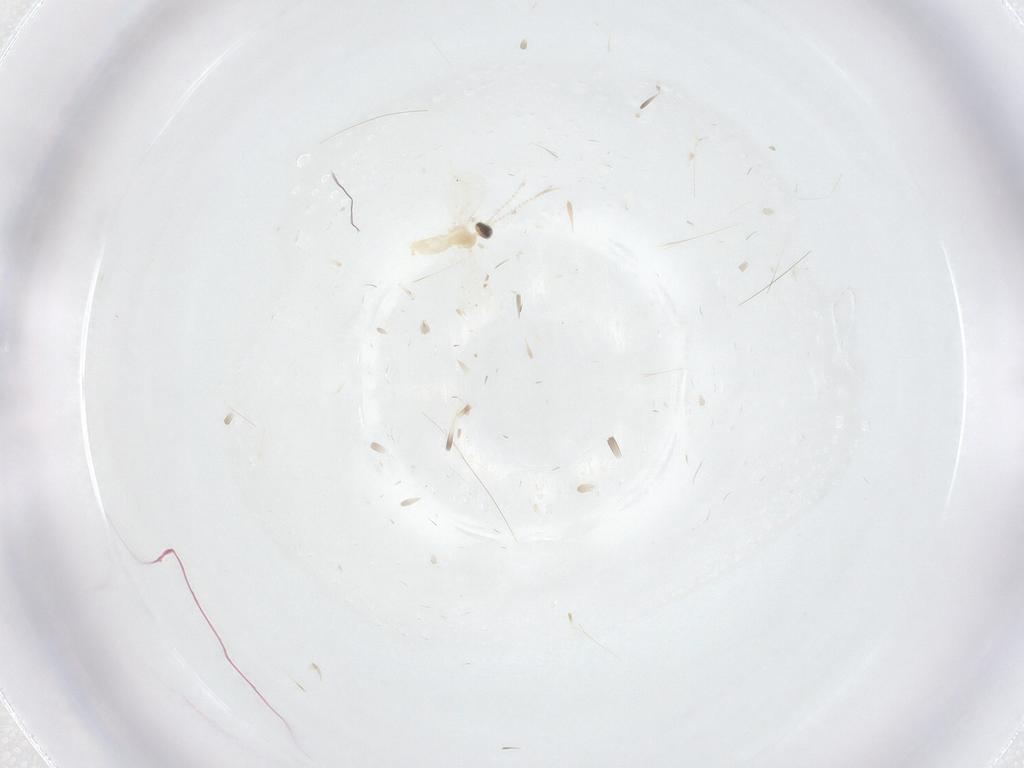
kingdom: Animalia
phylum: Arthropoda
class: Insecta
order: Diptera
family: Cecidomyiidae
